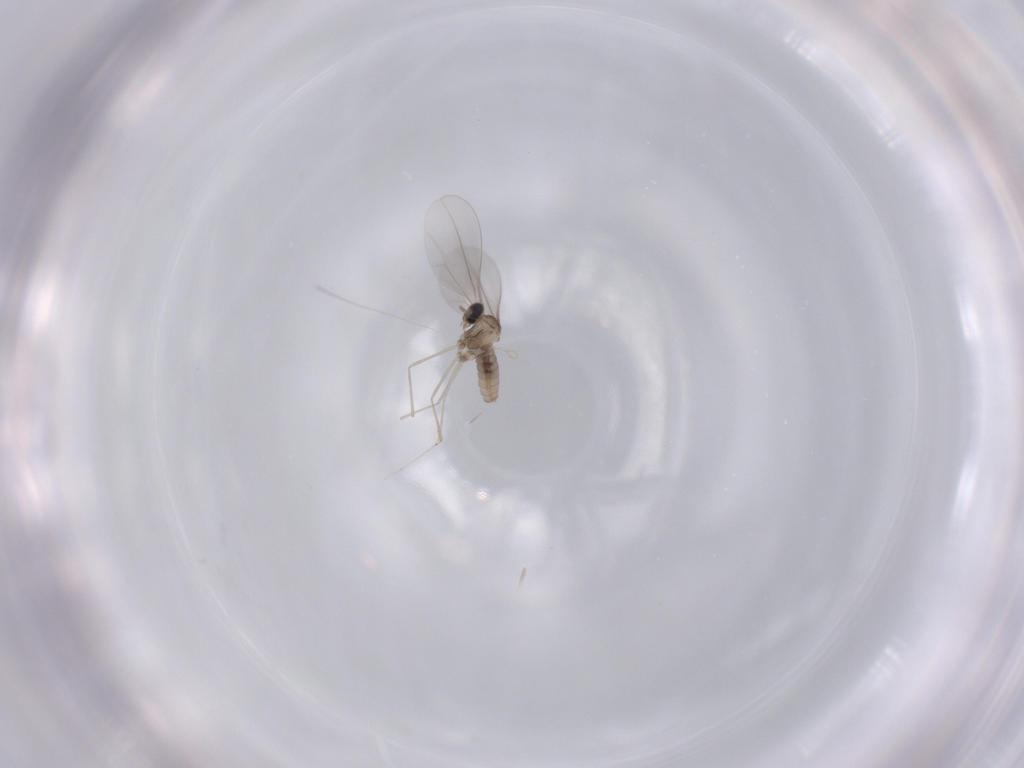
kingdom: Animalia
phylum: Arthropoda
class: Insecta
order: Diptera
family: Cecidomyiidae
